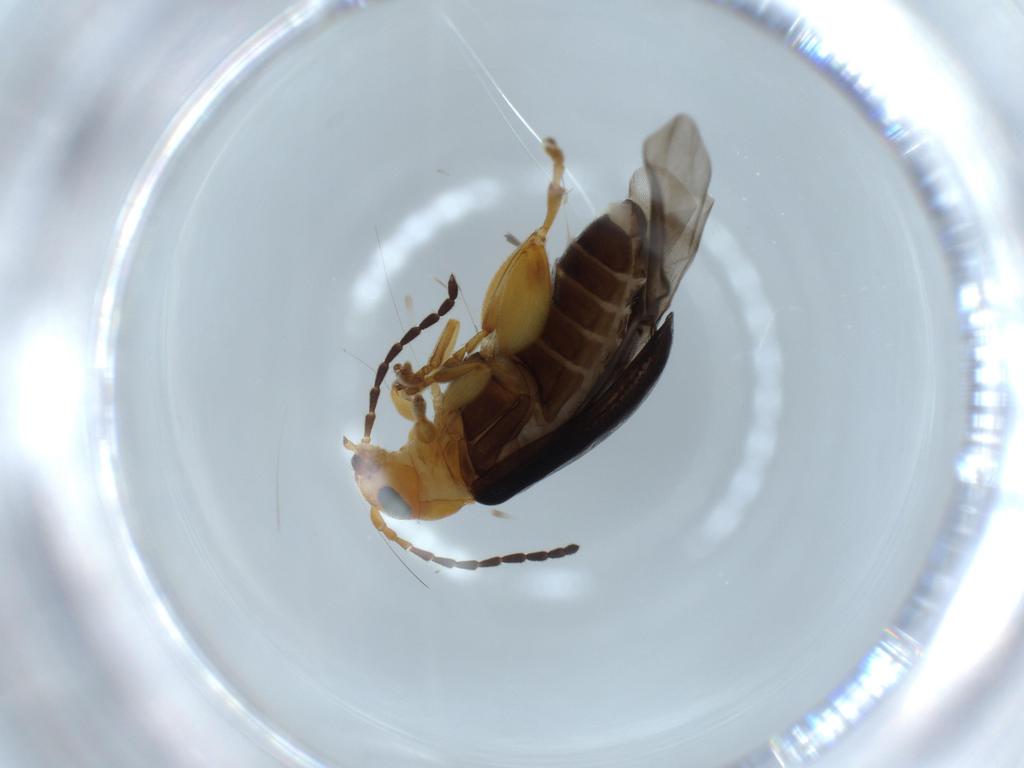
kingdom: Animalia
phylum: Arthropoda
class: Insecta
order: Coleoptera
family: Chrysomelidae
